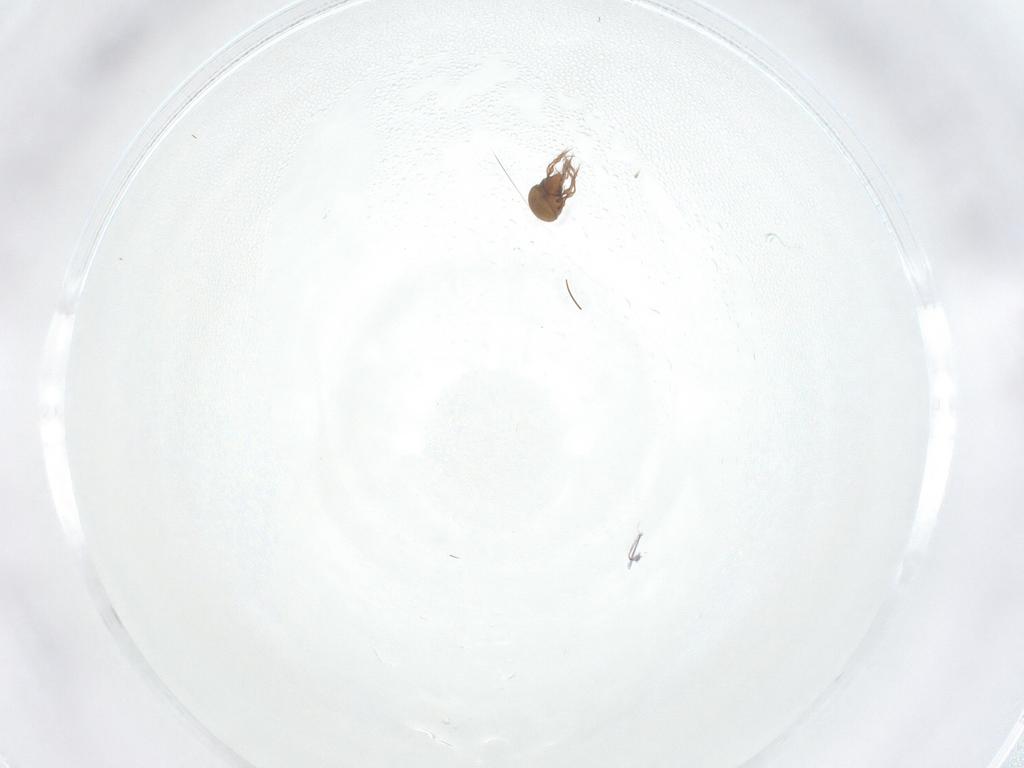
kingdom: Animalia
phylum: Arthropoda
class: Arachnida
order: Sarcoptiformes
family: Oppiidae
